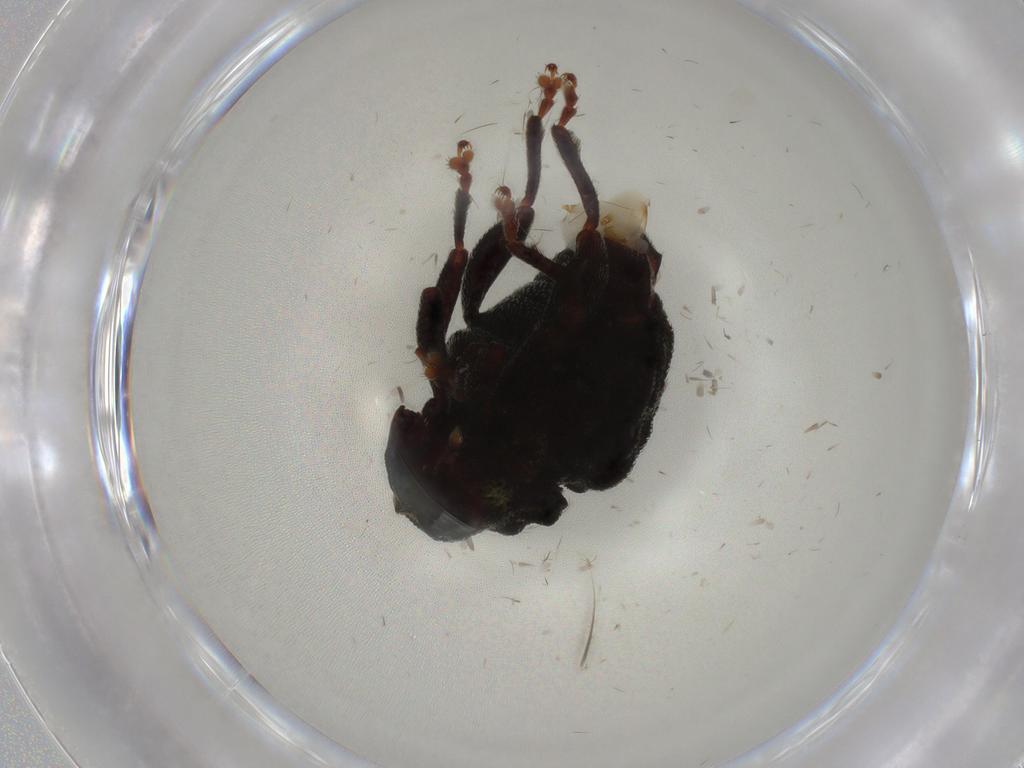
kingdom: Animalia
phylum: Arthropoda
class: Insecta
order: Coleoptera
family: Curculionidae
